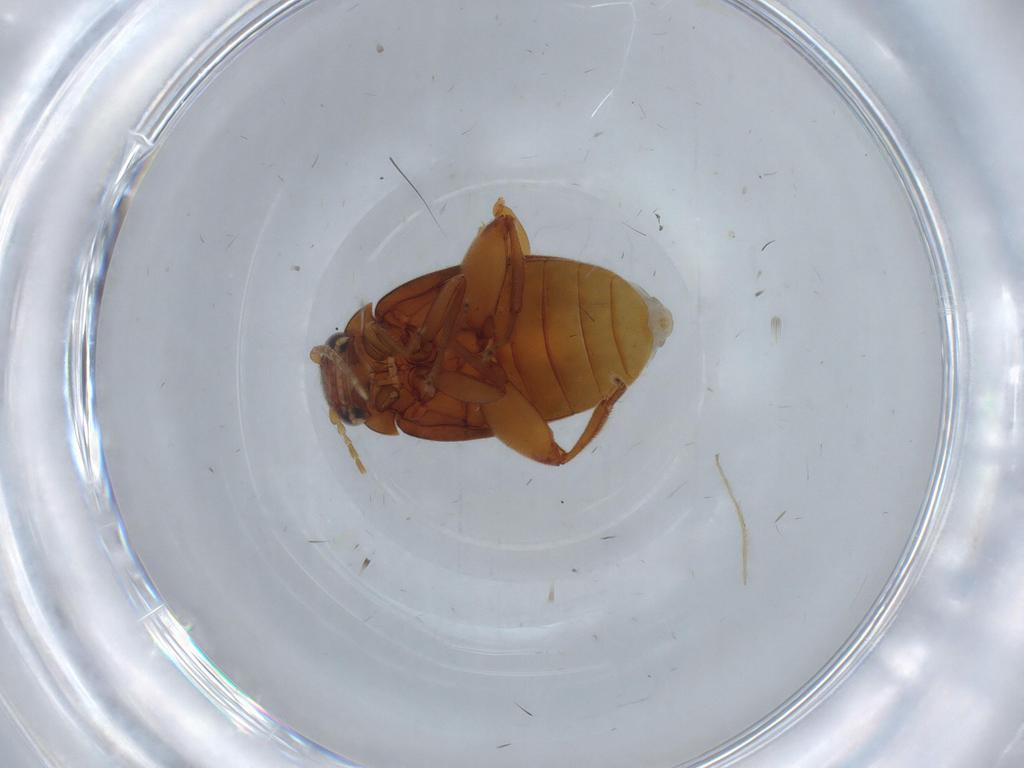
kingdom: Animalia
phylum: Arthropoda
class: Insecta
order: Coleoptera
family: Scirtidae
